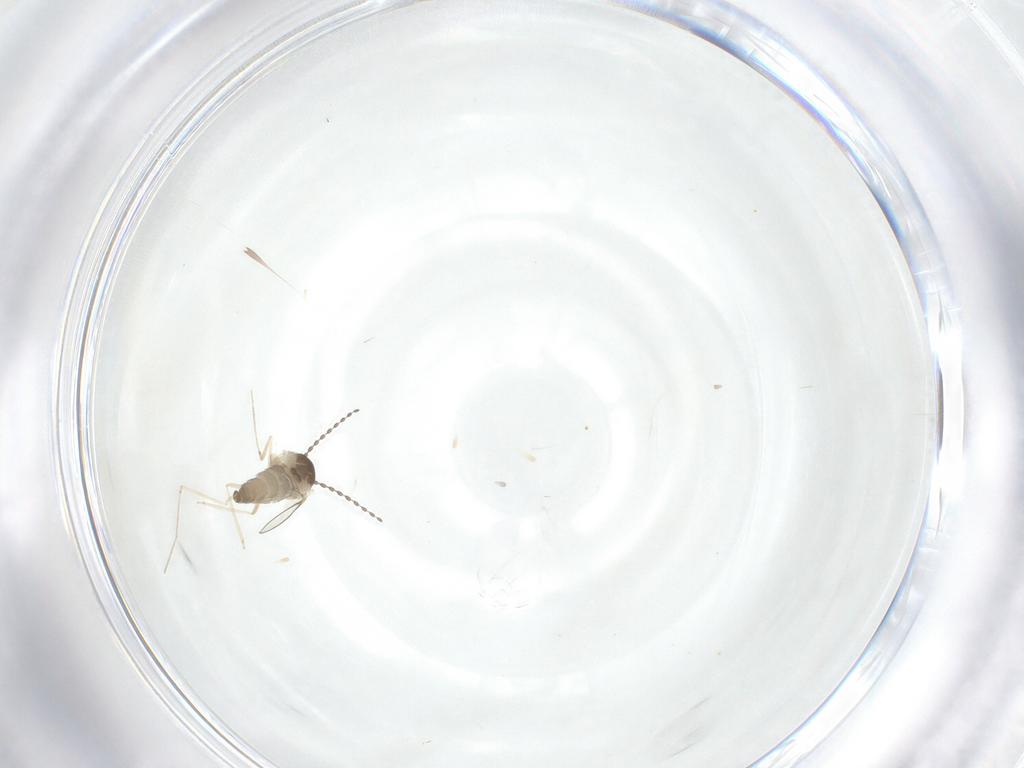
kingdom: Animalia
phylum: Arthropoda
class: Insecta
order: Diptera
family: Cecidomyiidae
